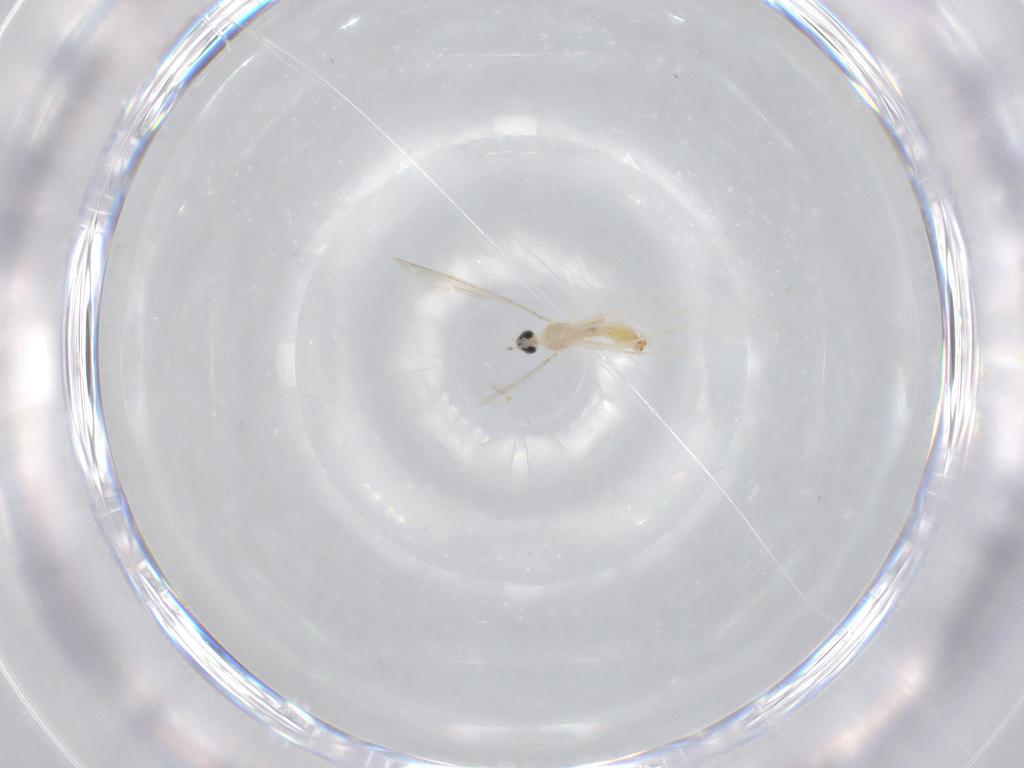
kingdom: Animalia
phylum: Arthropoda
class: Insecta
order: Diptera
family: Cecidomyiidae
